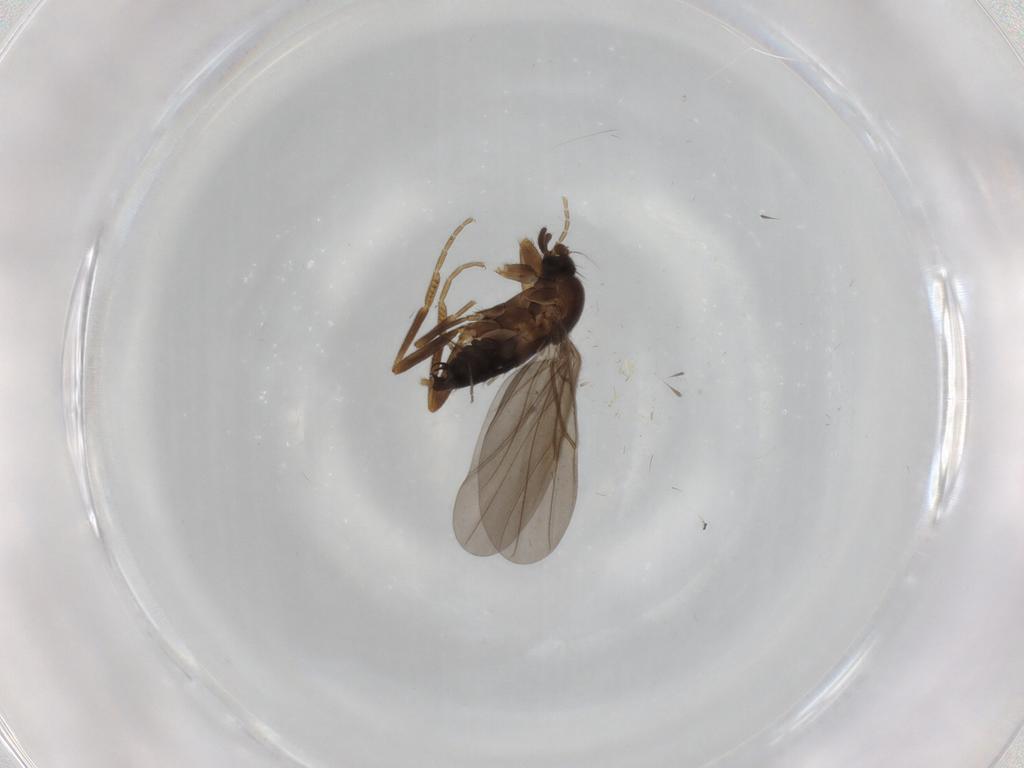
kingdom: Animalia
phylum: Arthropoda
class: Insecta
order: Diptera
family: Chironomidae
